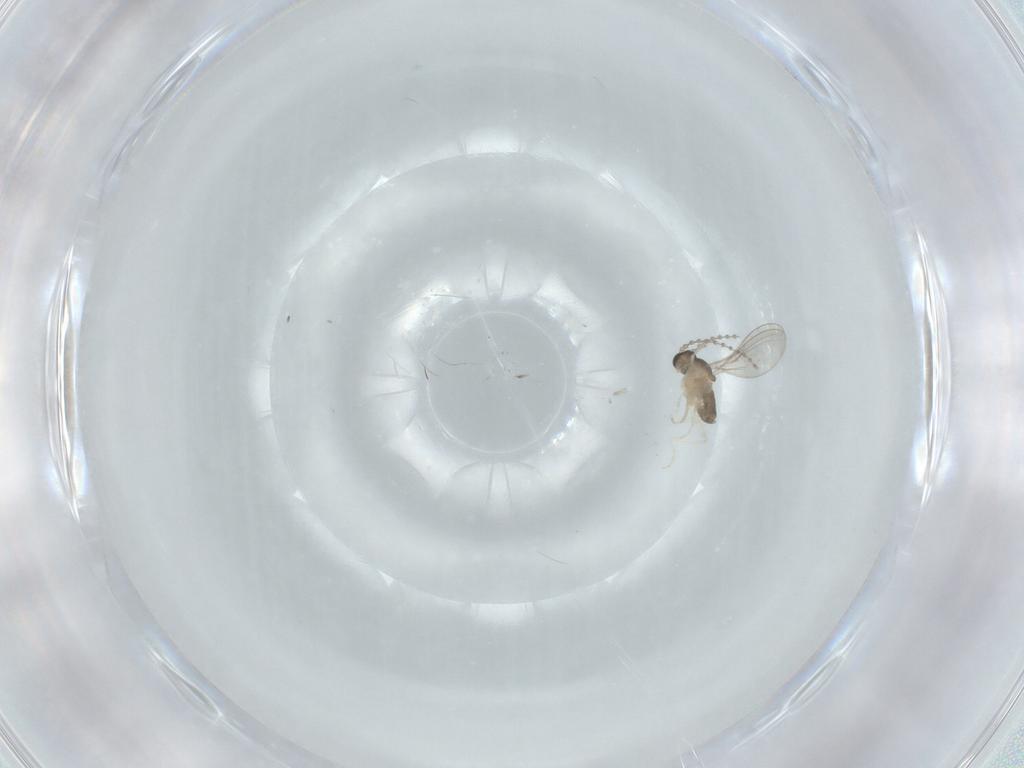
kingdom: Animalia
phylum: Arthropoda
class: Insecta
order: Diptera
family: Cecidomyiidae
